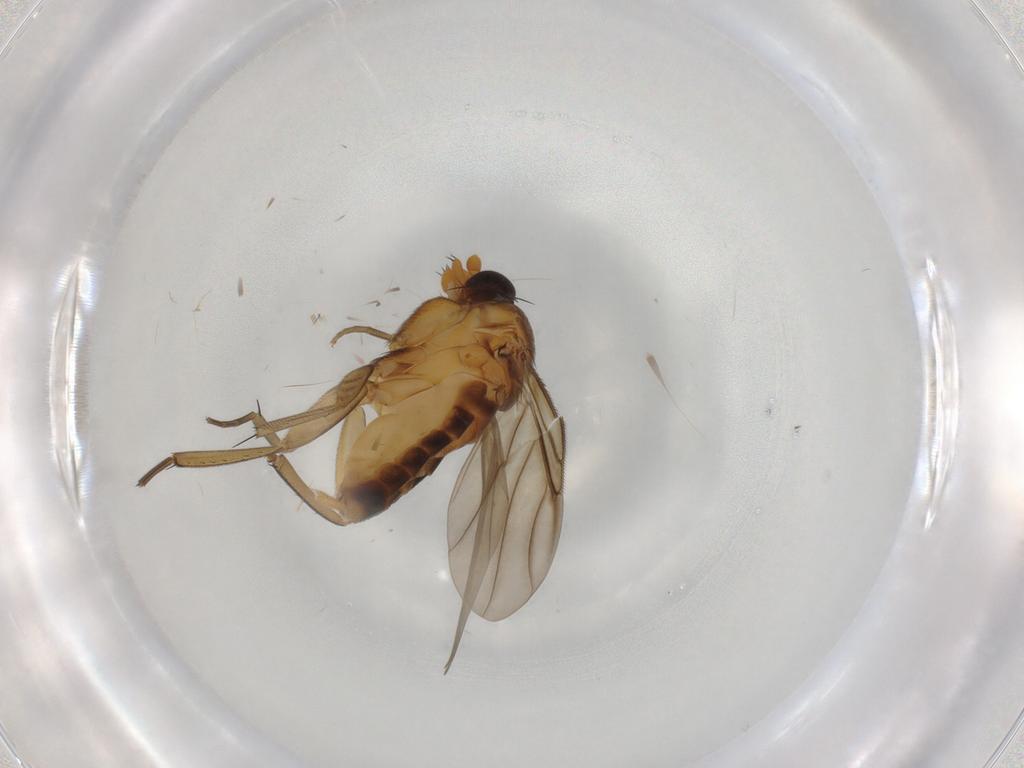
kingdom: Animalia
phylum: Arthropoda
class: Insecta
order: Diptera
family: Phoridae
